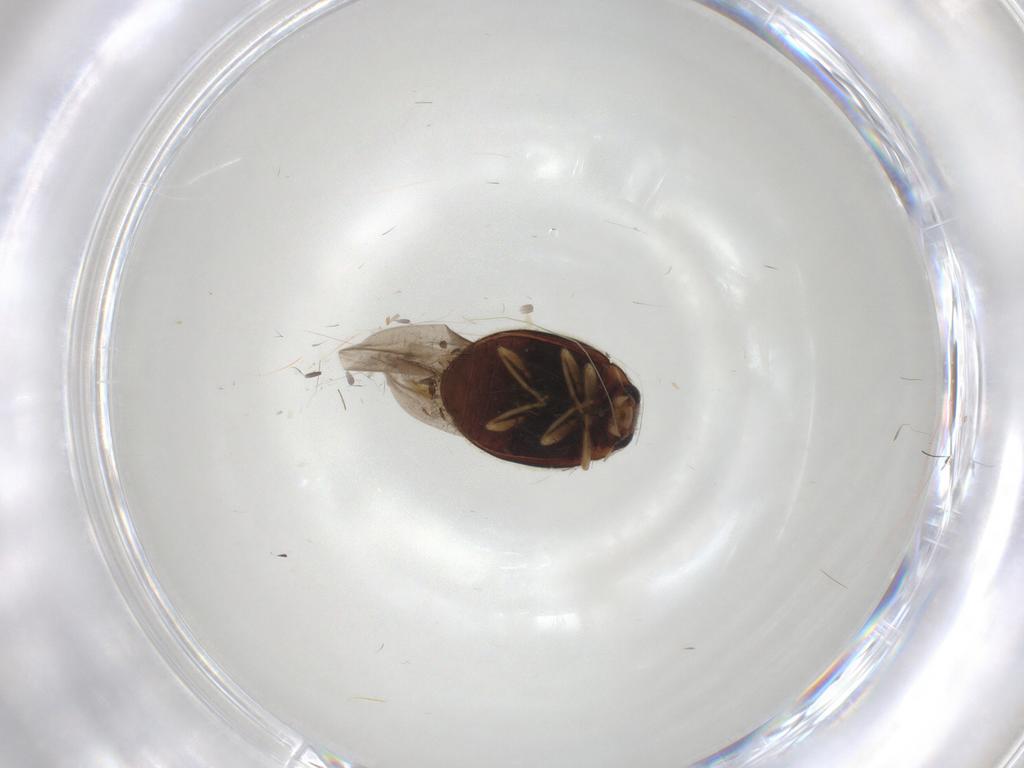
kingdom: Animalia
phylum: Arthropoda
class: Insecta
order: Coleoptera
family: Coccinellidae
